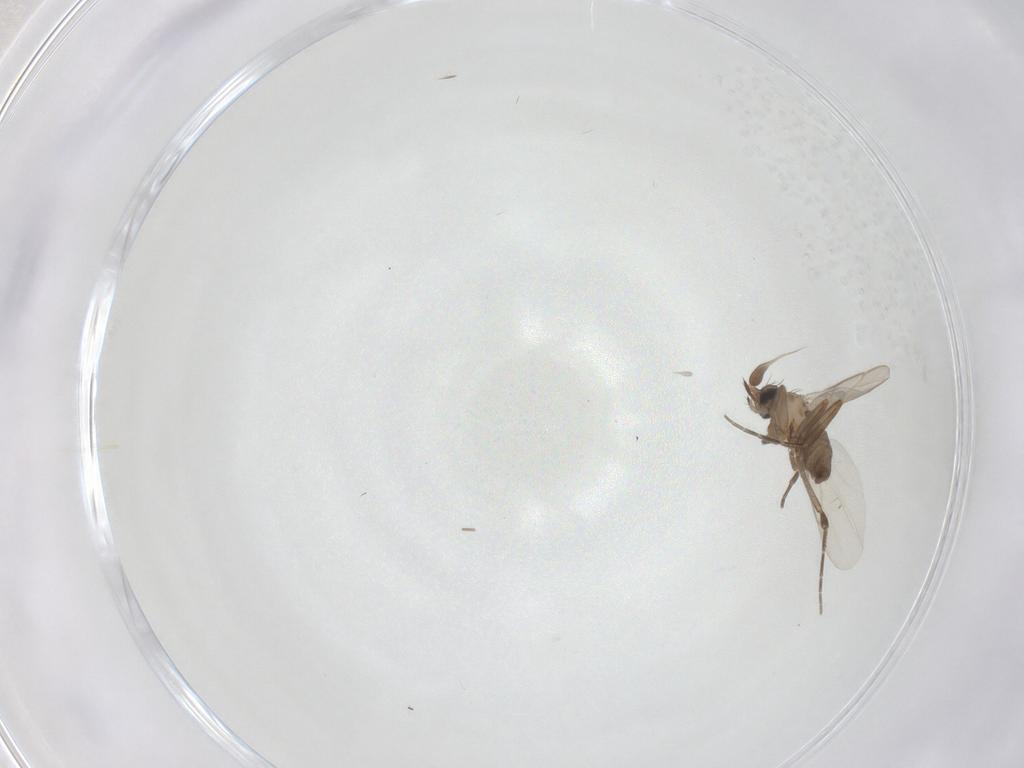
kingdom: Animalia
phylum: Arthropoda
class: Insecta
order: Diptera
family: Phoridae
